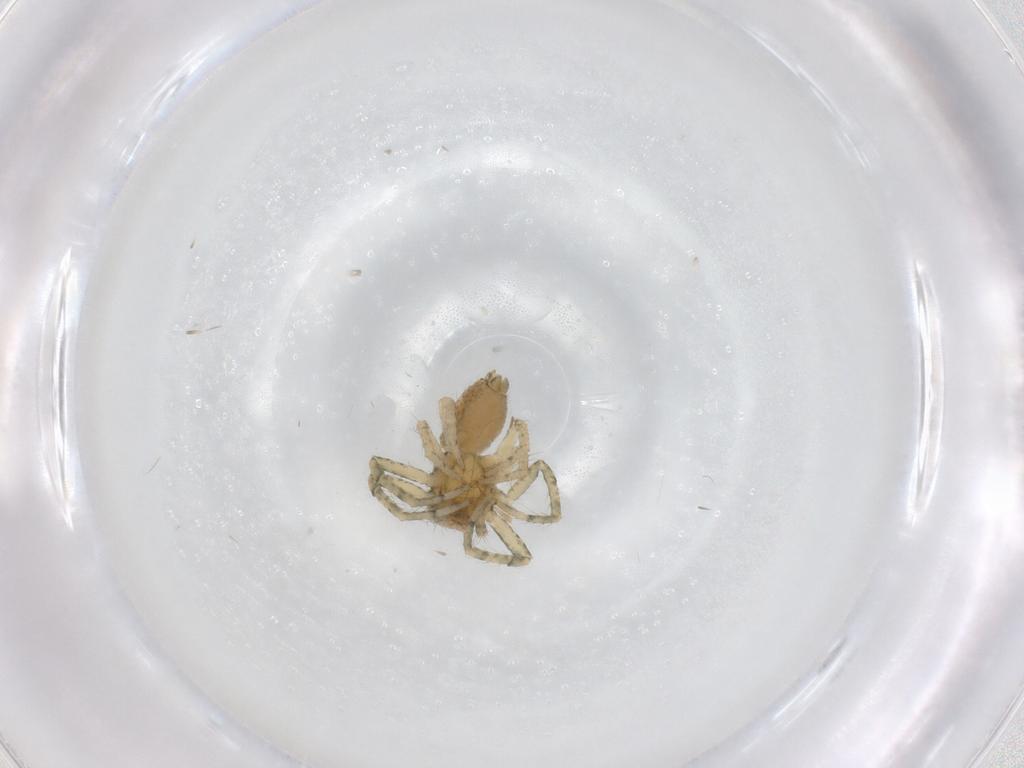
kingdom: Animalia
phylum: Arthropoda
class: Arachnida
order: Araneae
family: Thomisidae
